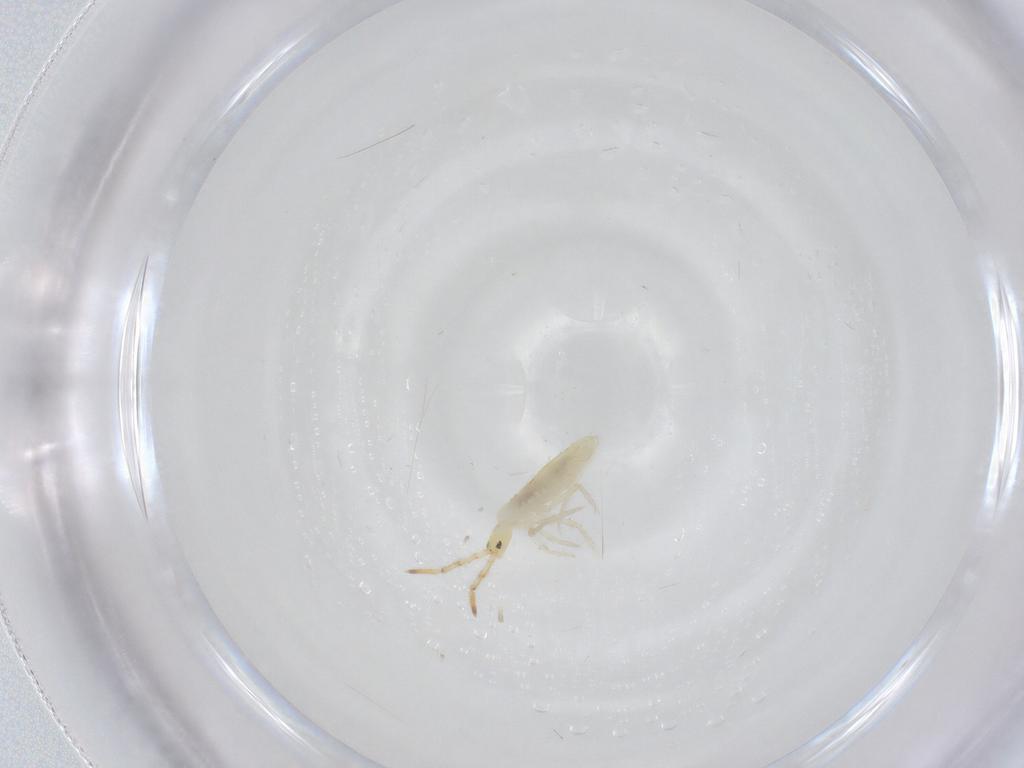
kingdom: Animalia
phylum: Arthropoda
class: Collembola
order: Entomobryomorpha
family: Entomobryidae
